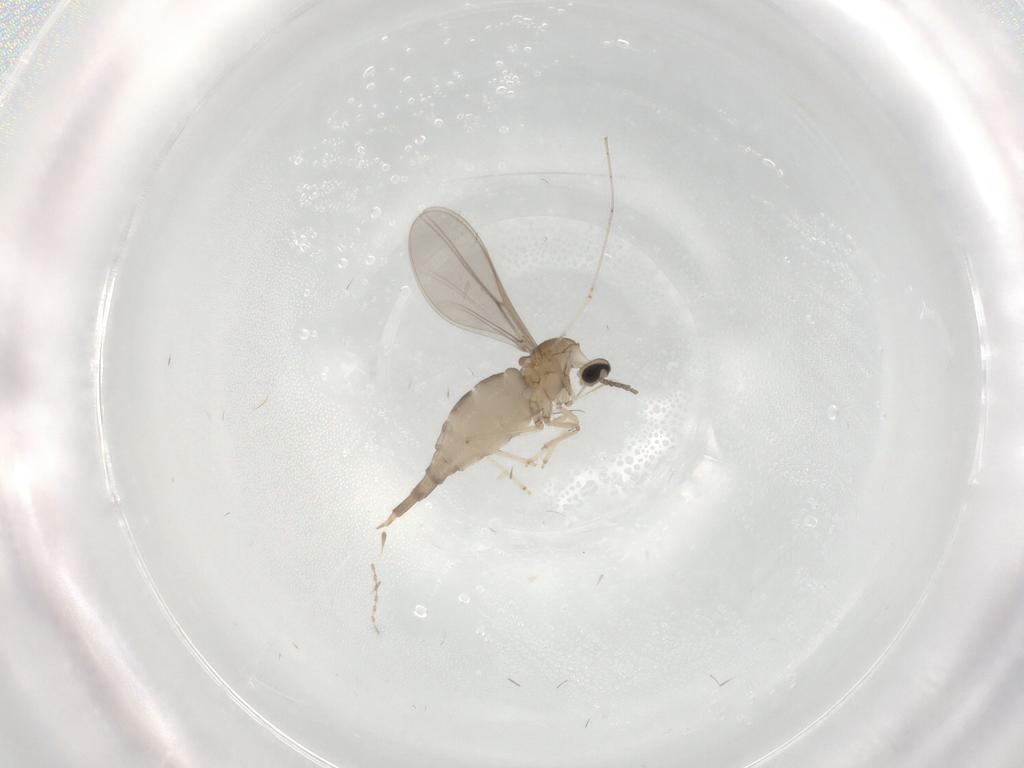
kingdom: Animalia
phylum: Arthropoda
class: Insecta
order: Diptera
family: Cecidomyiidae
